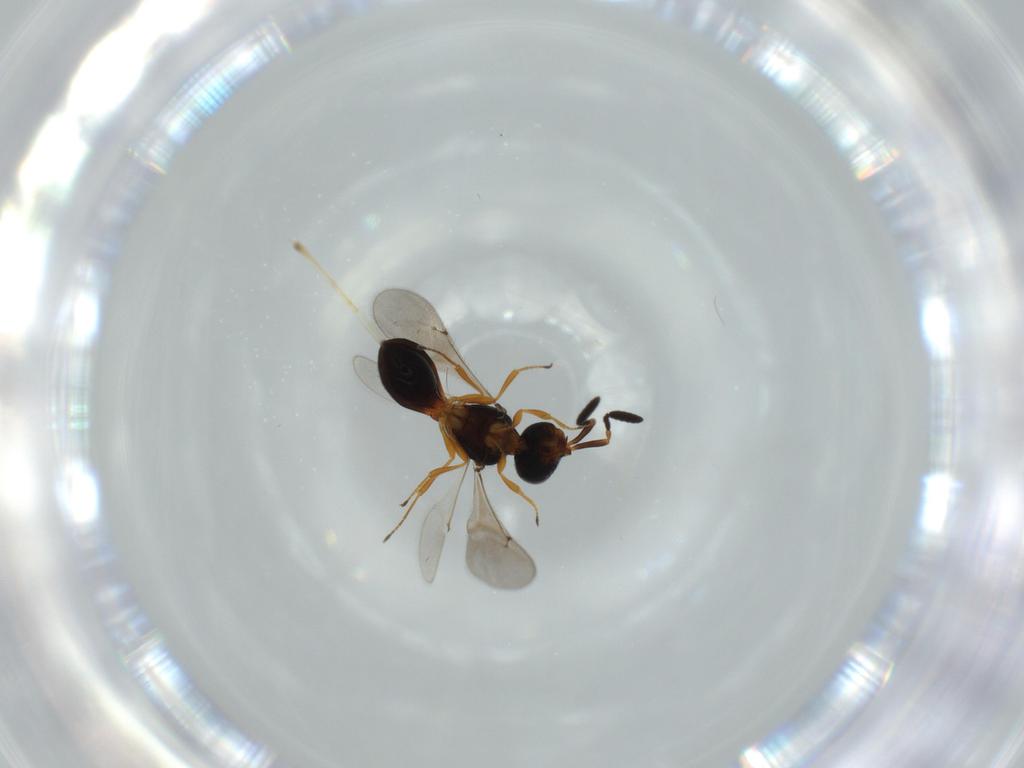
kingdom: Animalia
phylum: Arthropoda
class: Insecta
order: Hymenoptera
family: Scelionidae
